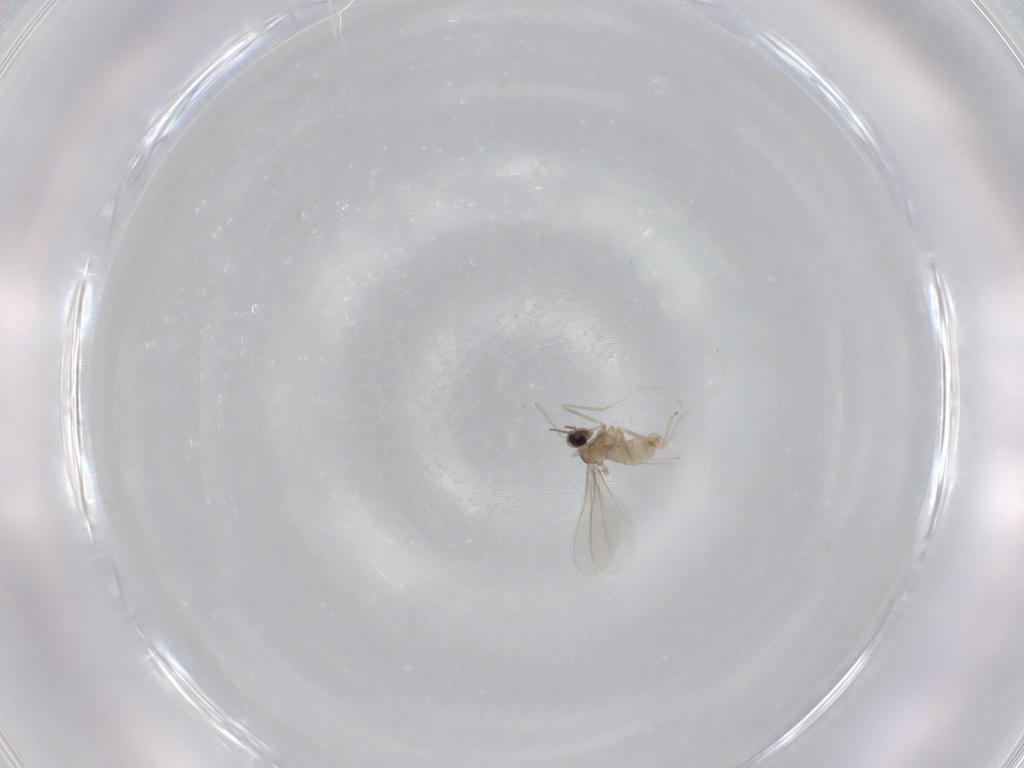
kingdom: Animalia
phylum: Arthropoda
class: Insecta
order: Diptera
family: Cecidomyiidae
